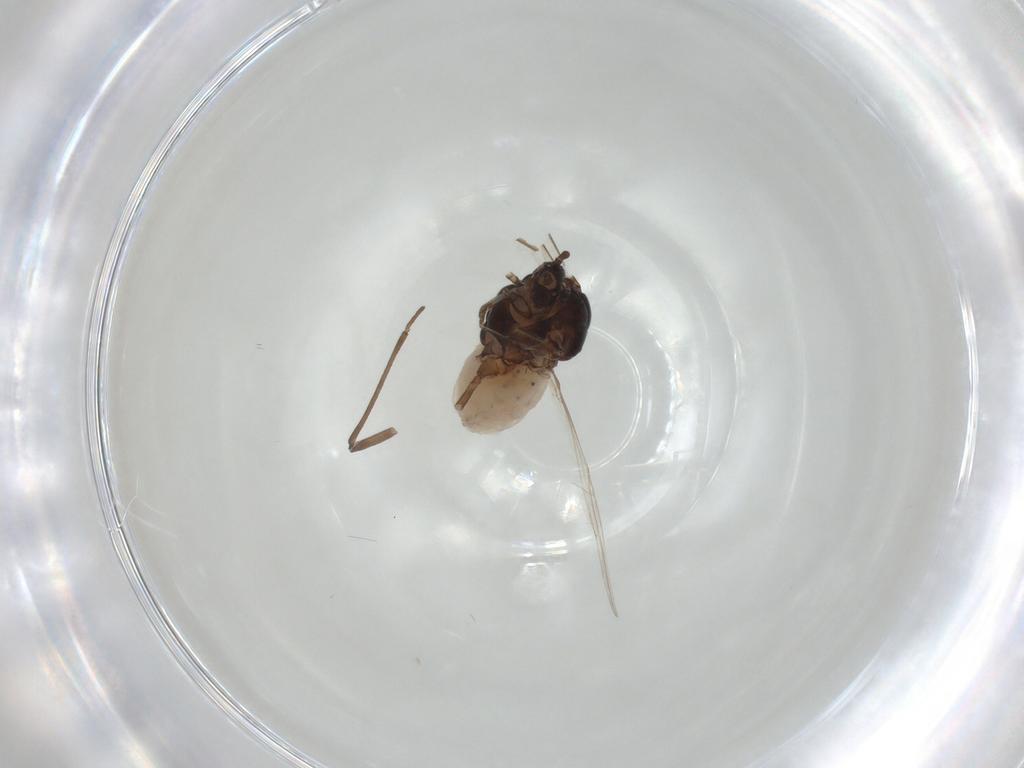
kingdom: Animalia
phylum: Arthropoda
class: Insecta
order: Hemiptera
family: Aphididae
